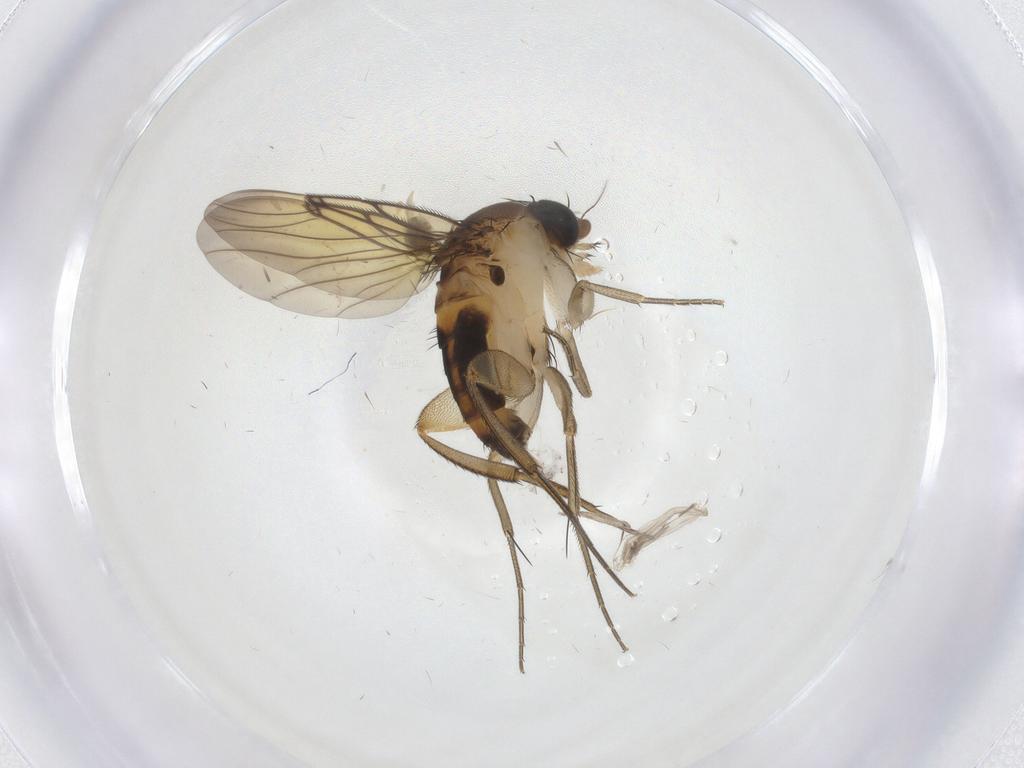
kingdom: Animalia
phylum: Arthropoda
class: Insecta
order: Diptera
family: Chironomidae
